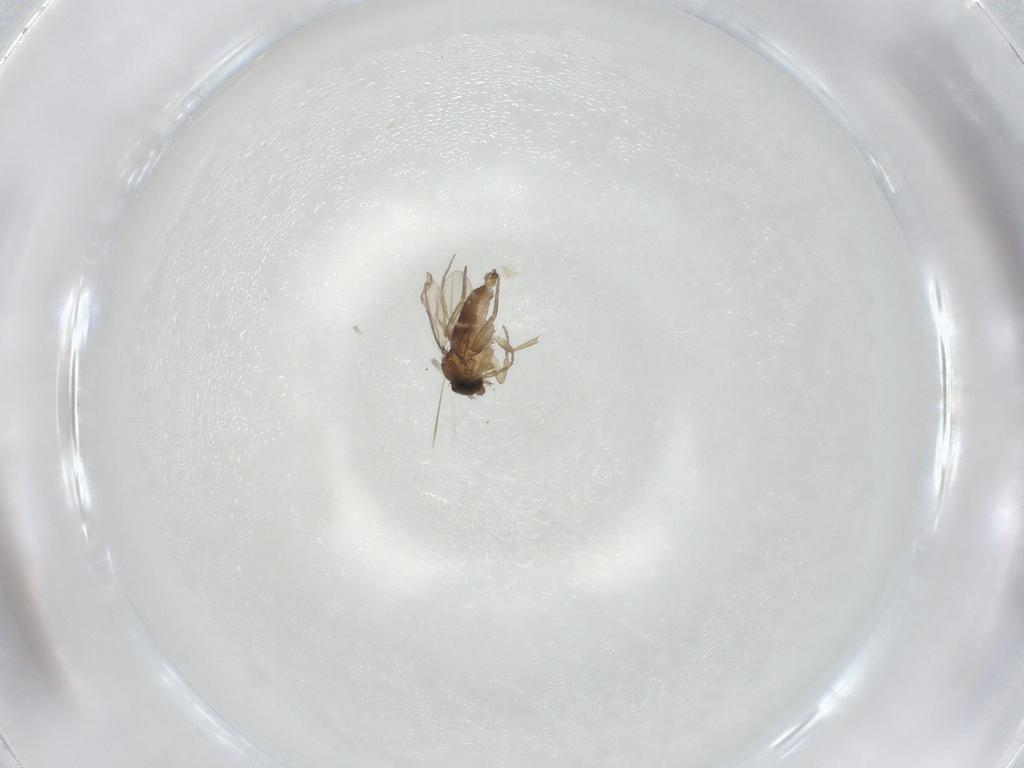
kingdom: Animalia
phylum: Arthropoda
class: Insecta
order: Diptera
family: Phoridae
